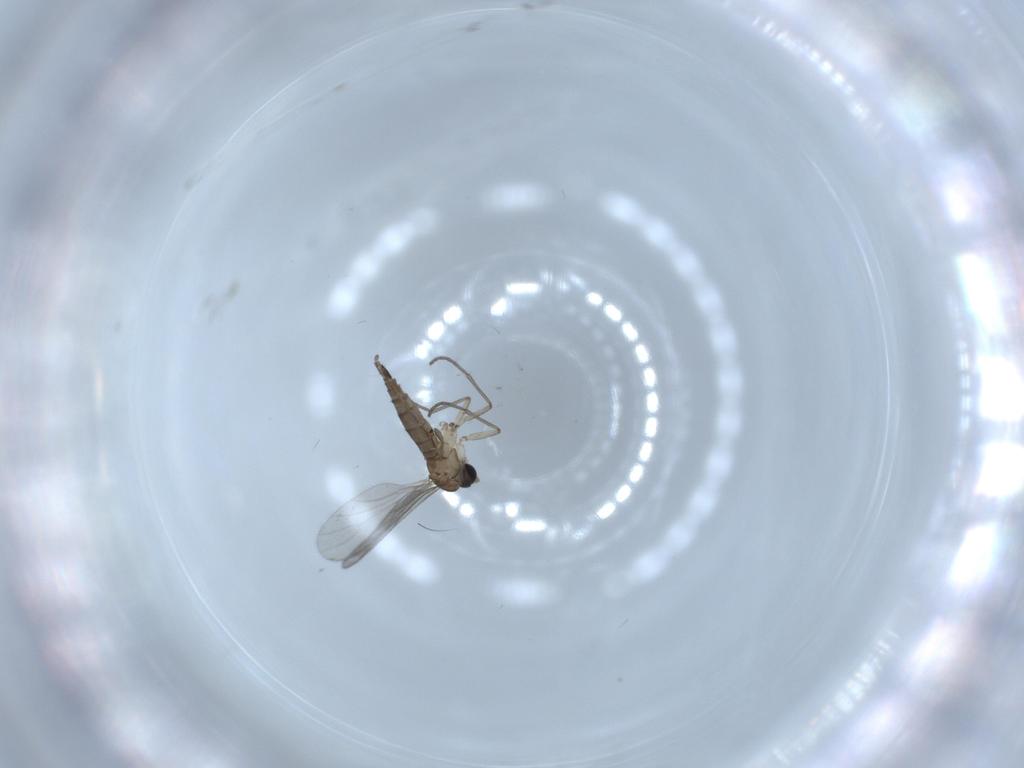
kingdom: Animalia
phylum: Arthropoda
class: Insecta
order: Diptera
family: Sciaridae
